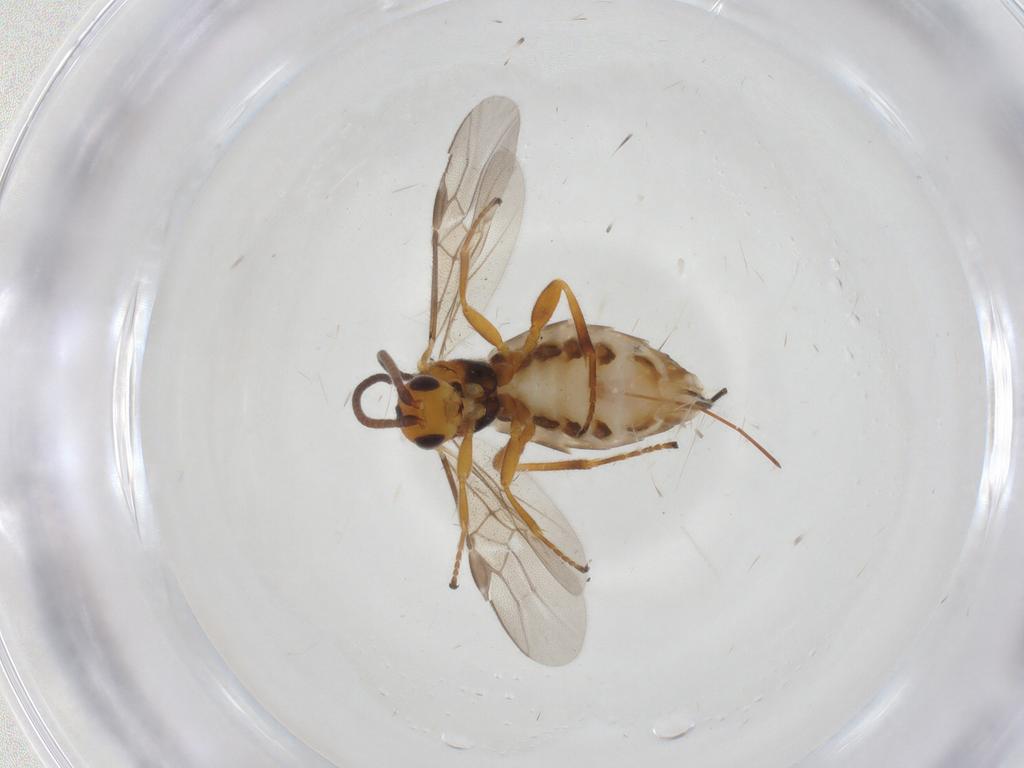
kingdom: Animalia
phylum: Arthropoda
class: Insecta
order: Hymenoptera
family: Braconidae
